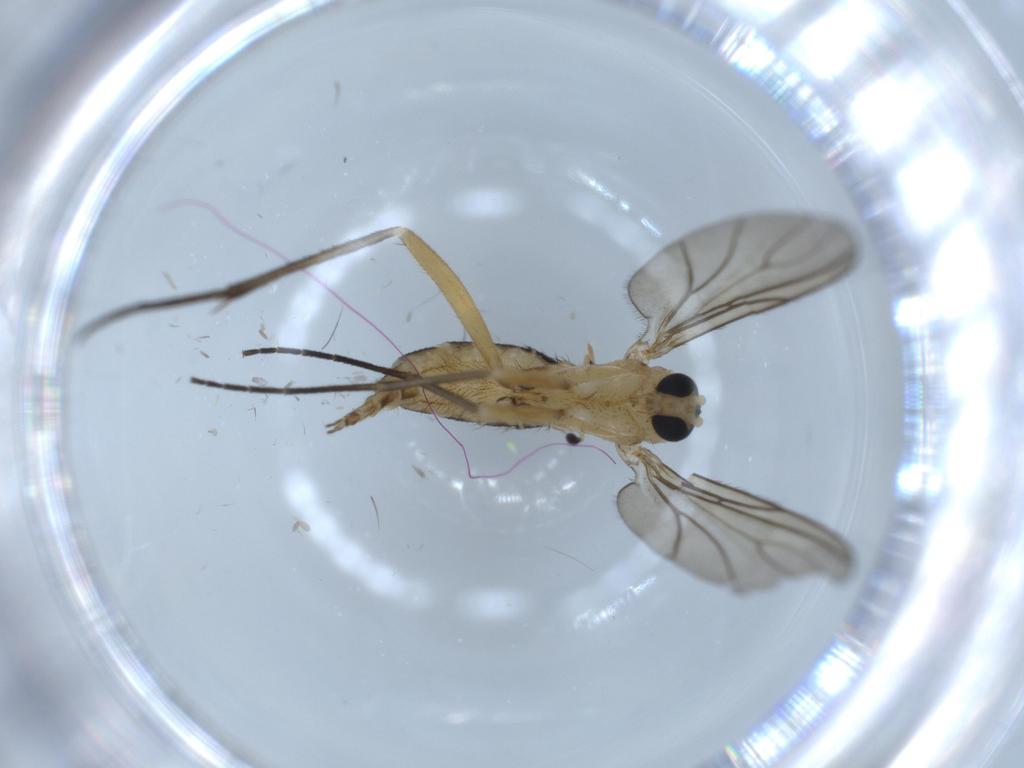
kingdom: Animalia
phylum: Arthropoda
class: Insecta
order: Diptera
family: Sciaridae
